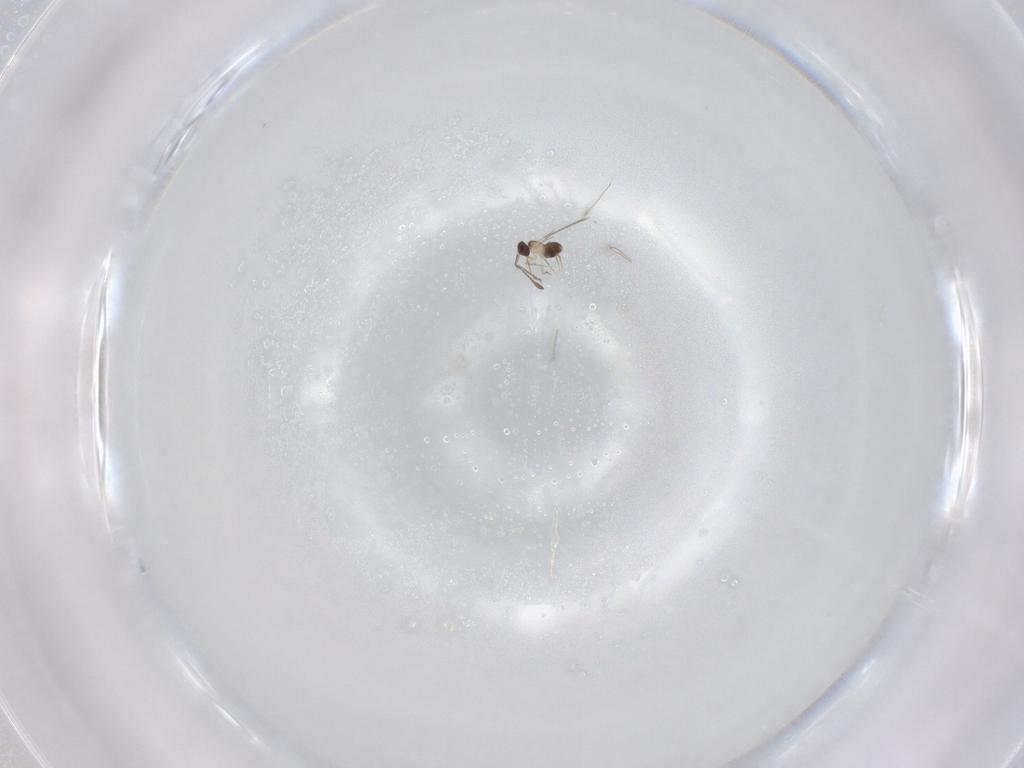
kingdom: Animalia
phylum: Arthropoda
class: Insecta
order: Hymenoptera
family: Mymaridae
